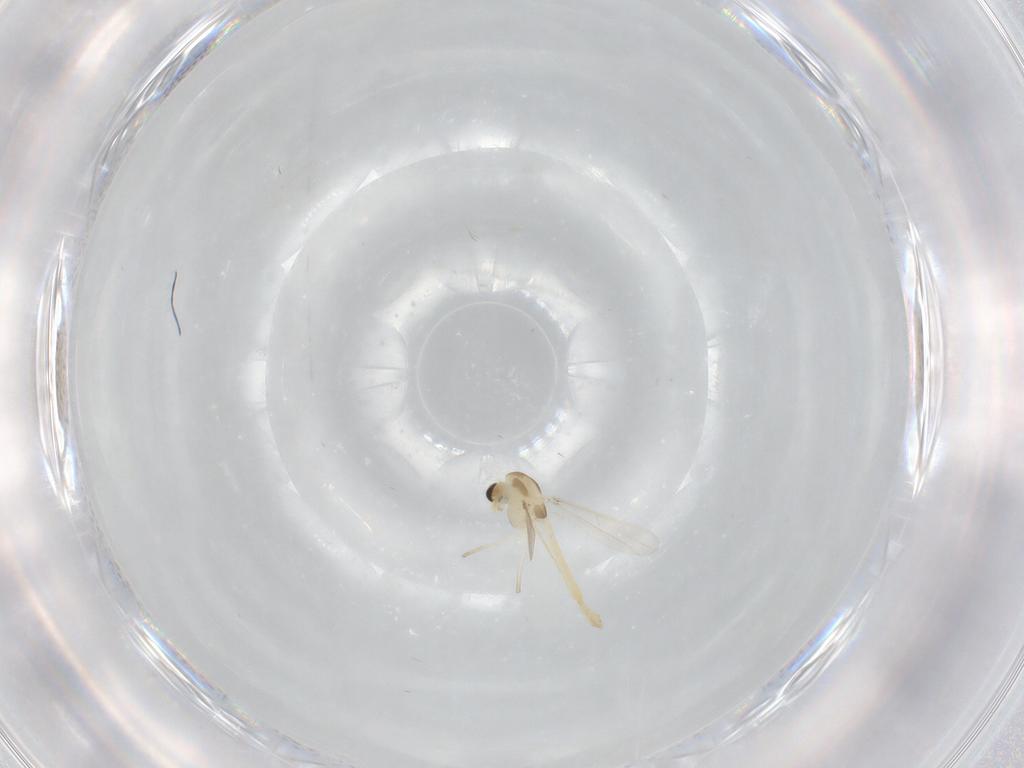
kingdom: Animalia
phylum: Arthropoda
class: Insecta
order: Diptera
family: Chironomidae
